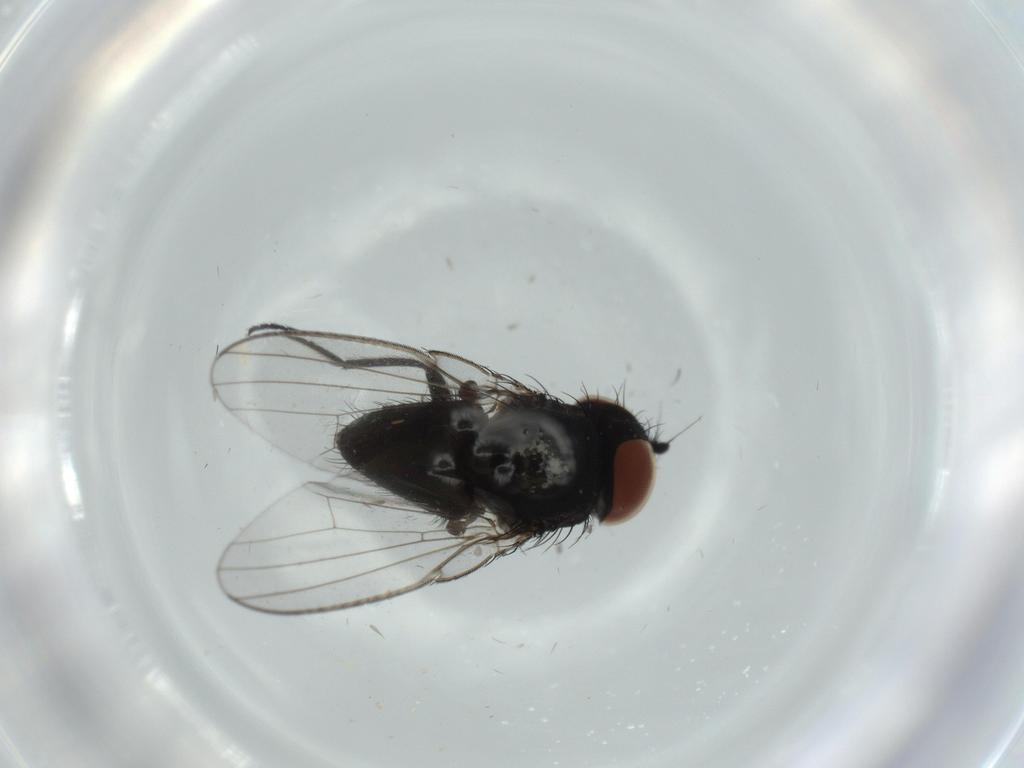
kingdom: Animalia
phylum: Arthropoda
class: Insecta
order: Diptera
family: Milichiidae
